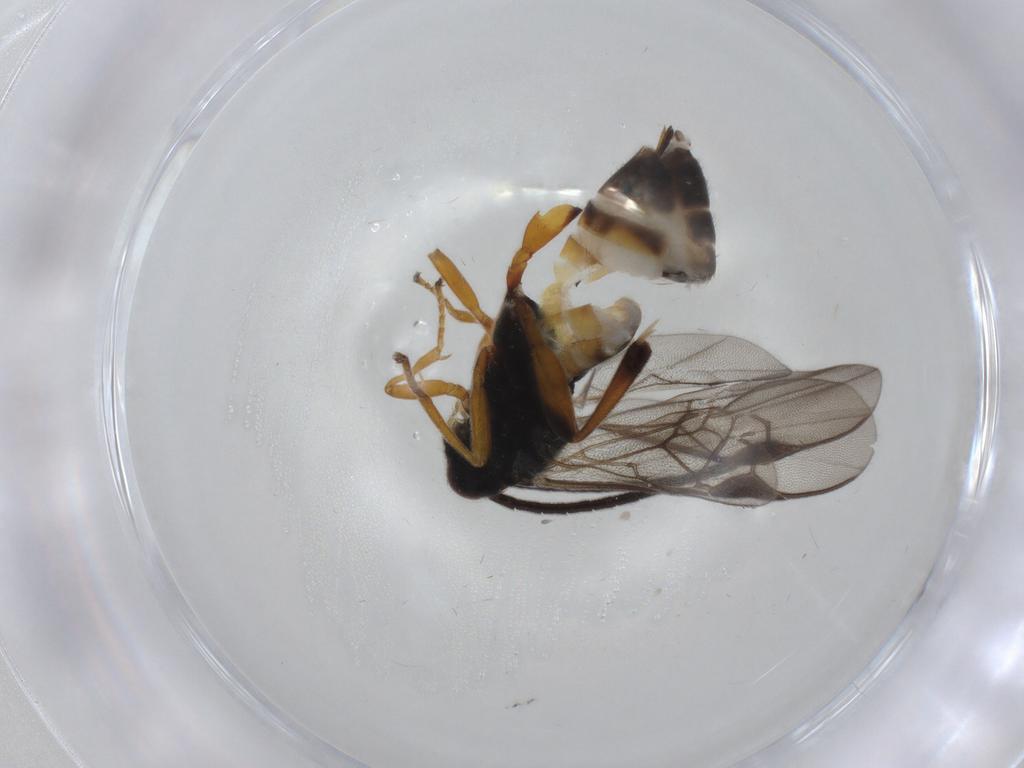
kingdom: Animalia
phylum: Arthropoda
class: Insecta
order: Hymenoptera
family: Braconidae
